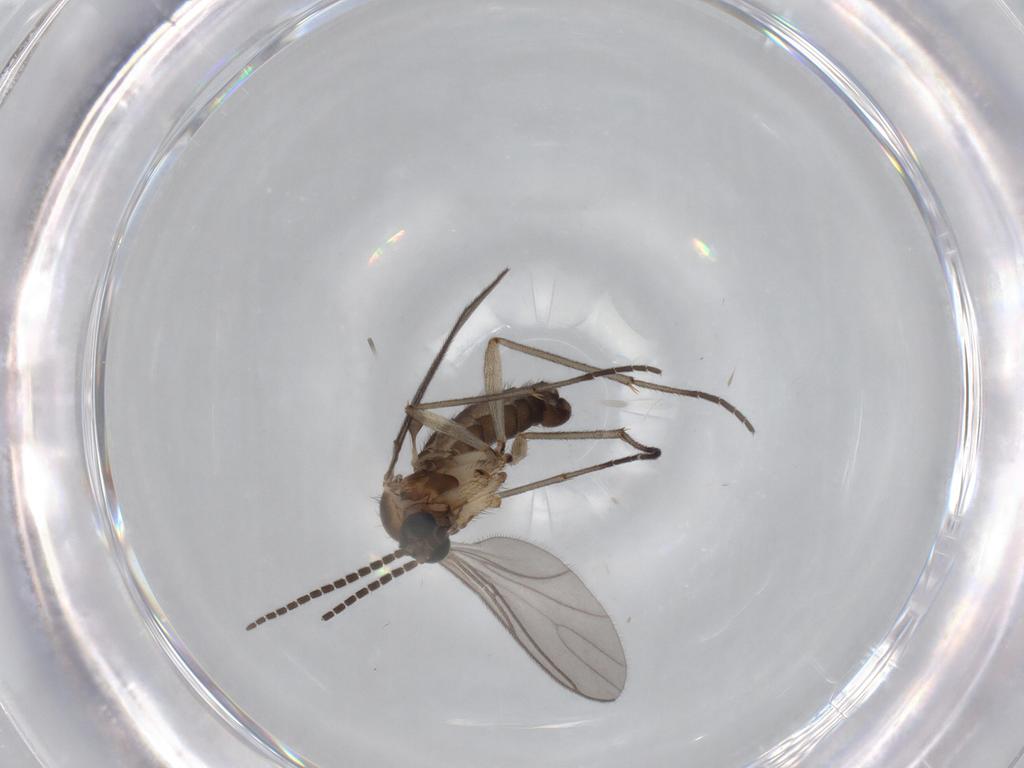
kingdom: Animalia
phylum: Arthropoda
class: Insecta
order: Diptera
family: Sciaridae
